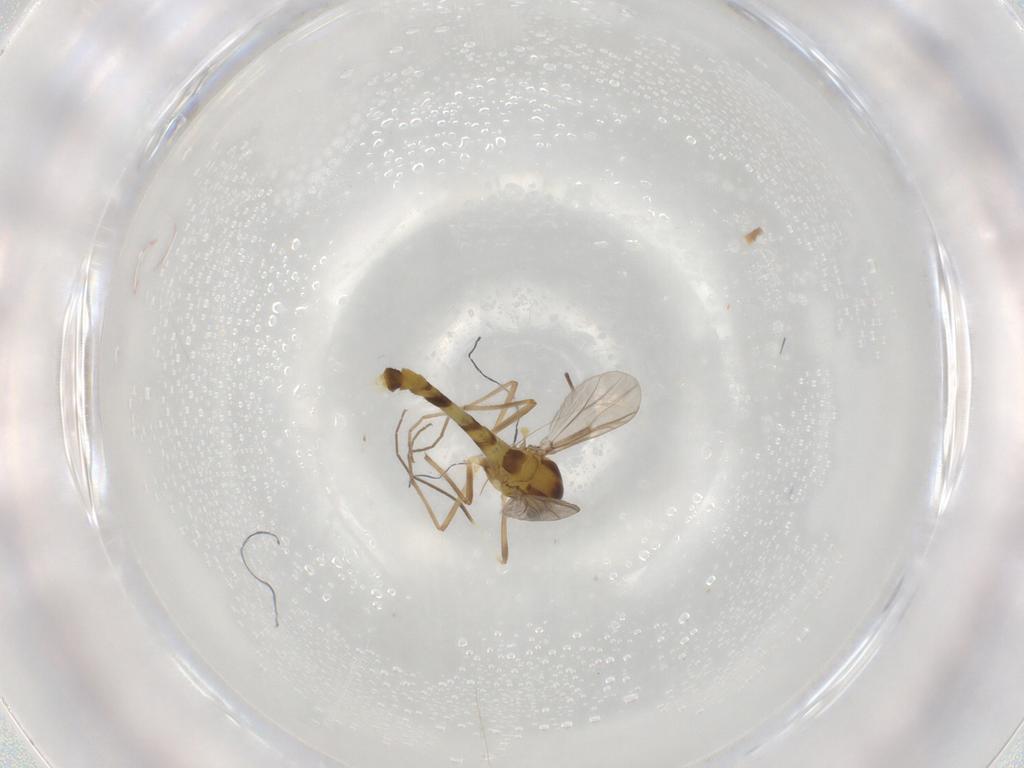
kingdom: Animalia
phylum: Arthropoda
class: Insecta
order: Diptera
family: Chironomidae
